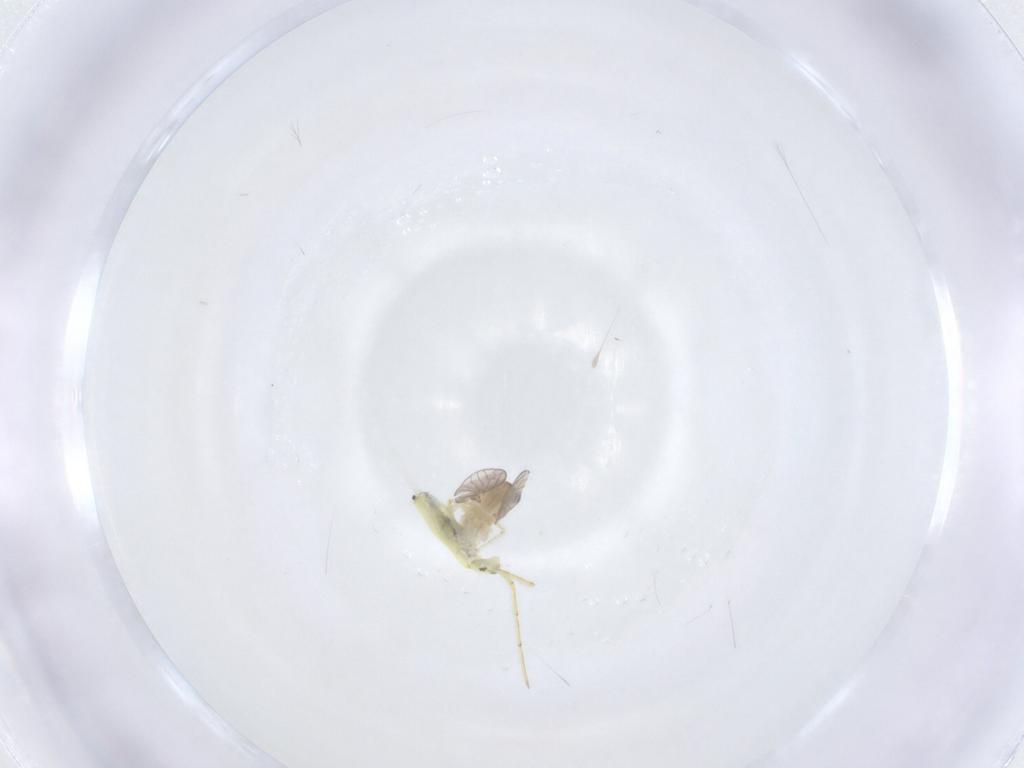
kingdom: Animalia
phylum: Arthropoda
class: Collembola
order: Entomobryomorpha
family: Paronellidae
